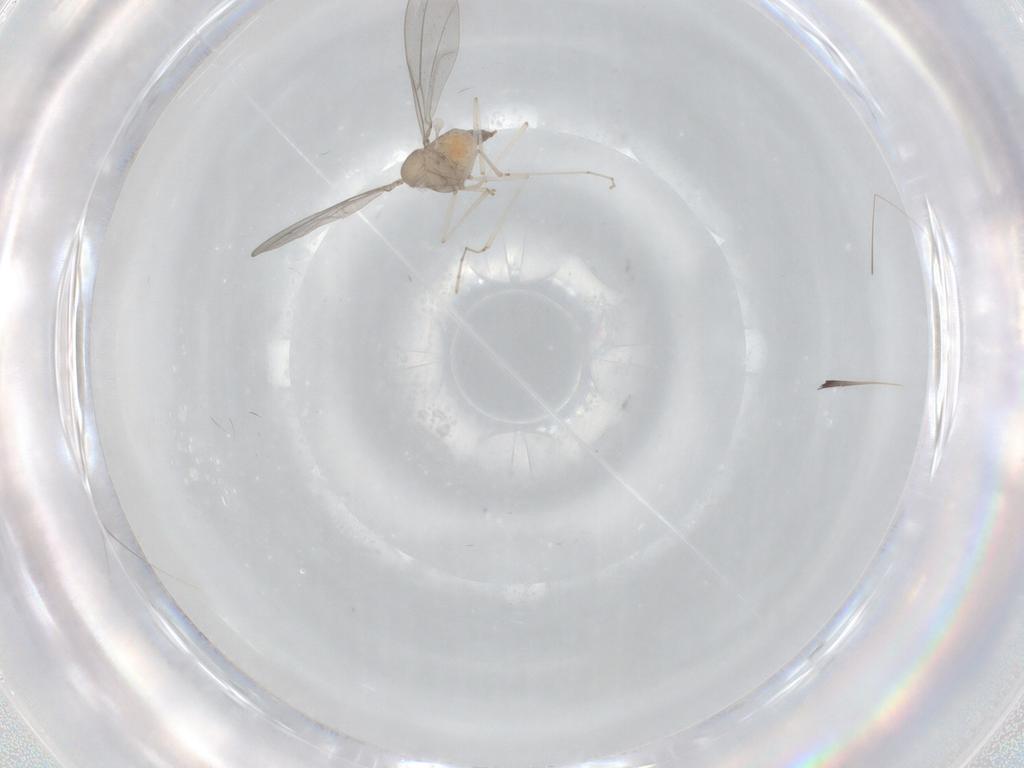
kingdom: Animalia
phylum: Arthropoda
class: Insecta
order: Diptera
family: Cecidomyiidae
